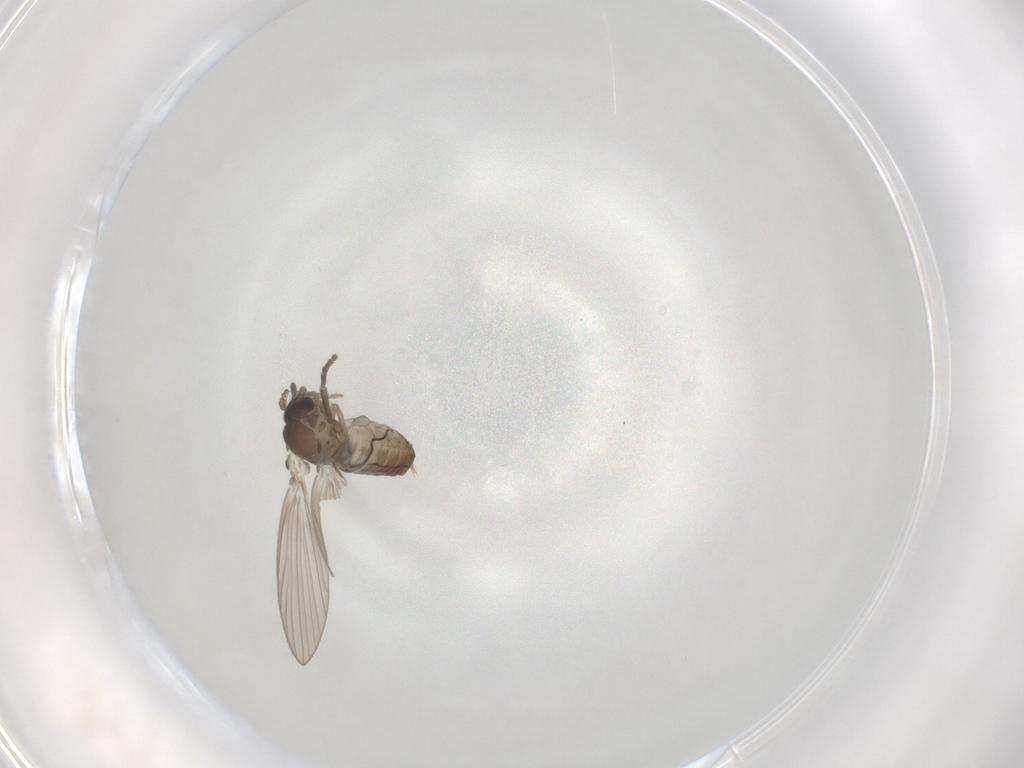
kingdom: Animalia
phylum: Arthropoda
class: Insecta
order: Diptera
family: Psychodidae
